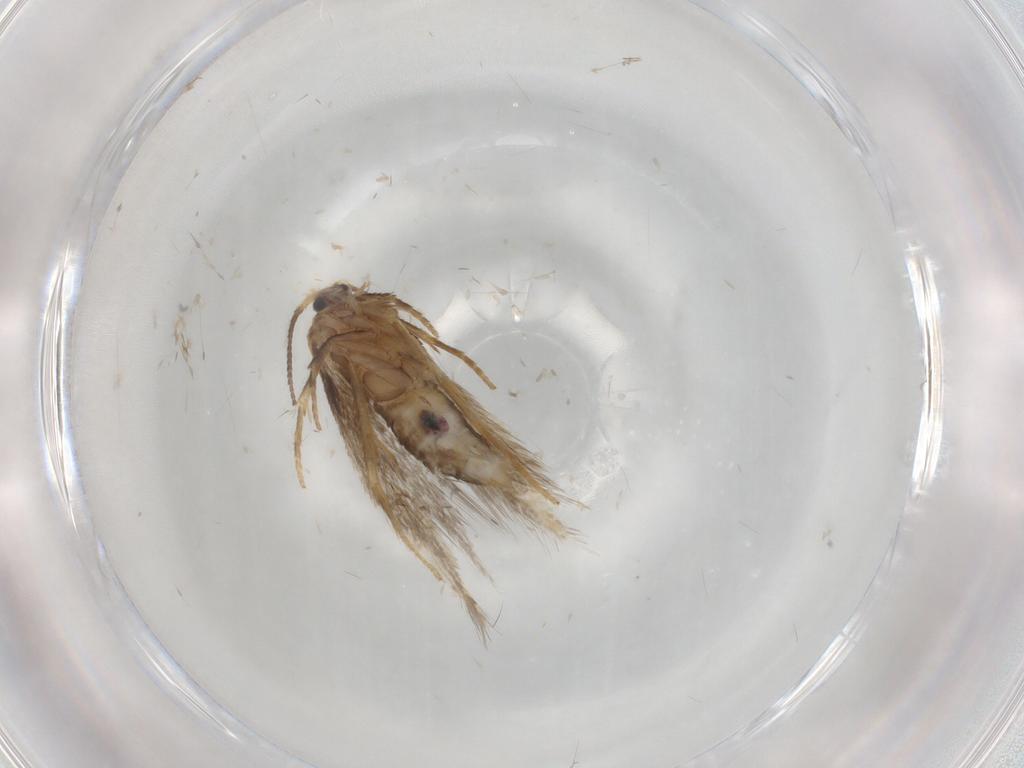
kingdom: Animalia
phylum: Arthropoda
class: Insecta
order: Lepidoptera
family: Nepticulidae
